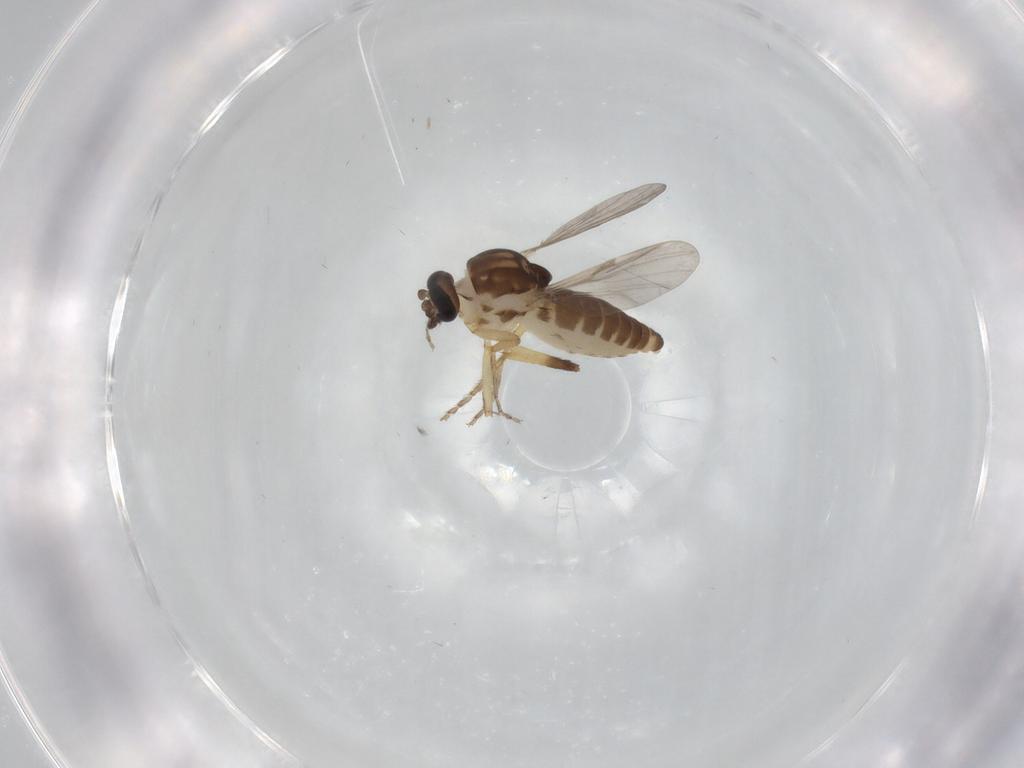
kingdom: Animalia
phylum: Arthropoda
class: Insecta
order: Diptera
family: Ceratopogonidae
